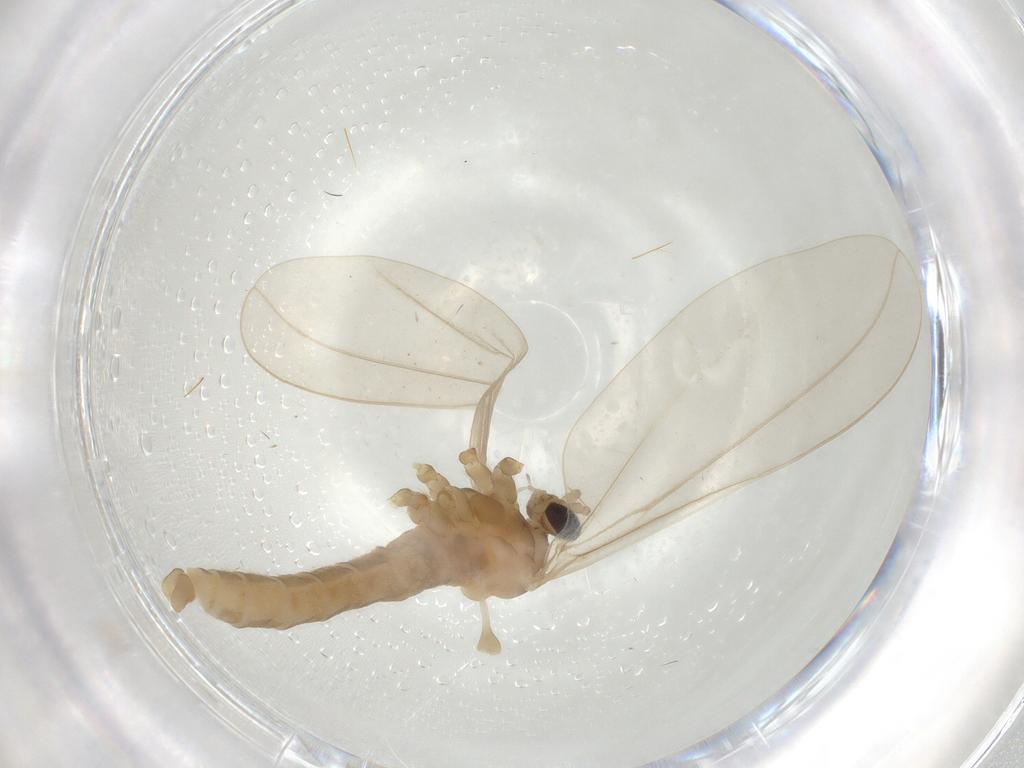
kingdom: Animalia
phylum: Arthropoda
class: Insecta
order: Diptera
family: Cecidomyiidae
